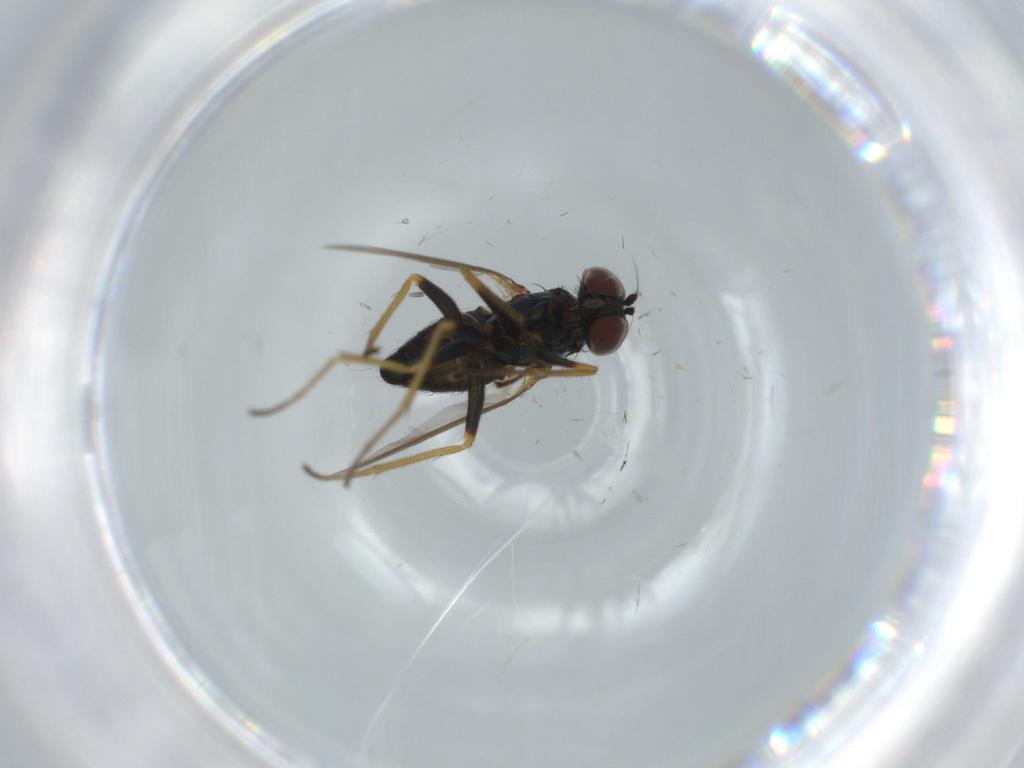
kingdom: Animalia
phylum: Arthropoda
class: Insecta
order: Diptera
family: Dolichopodidae
